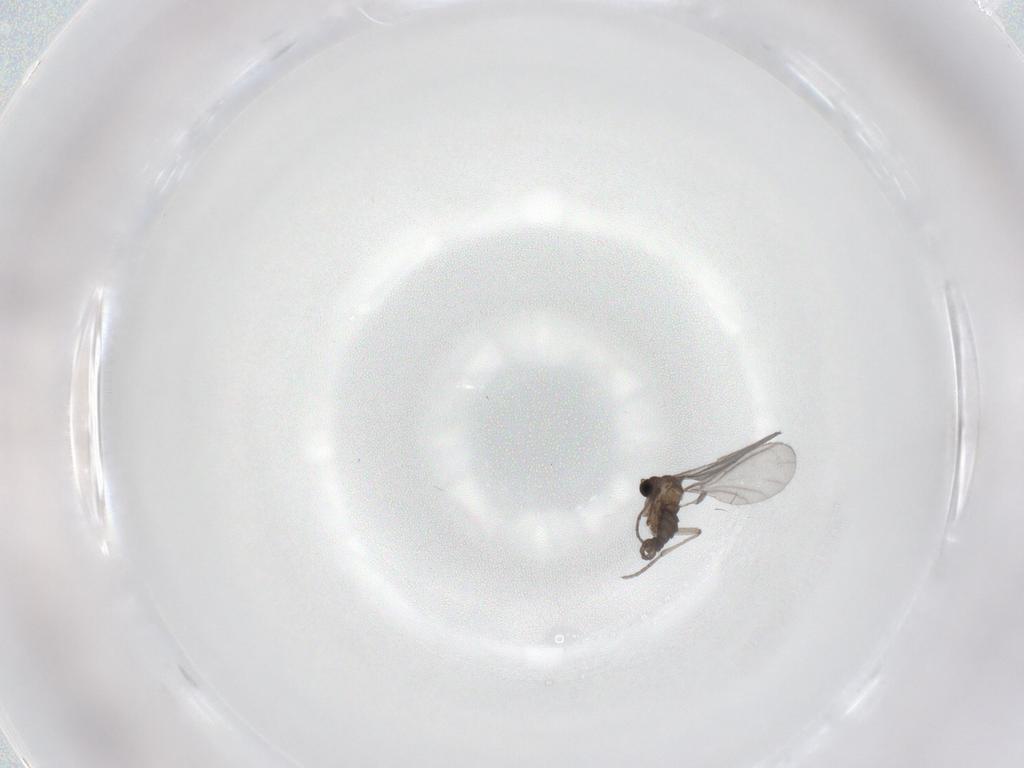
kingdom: Animalia
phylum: Arthropoda
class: Insecta
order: Diptera
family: Sciaridae
